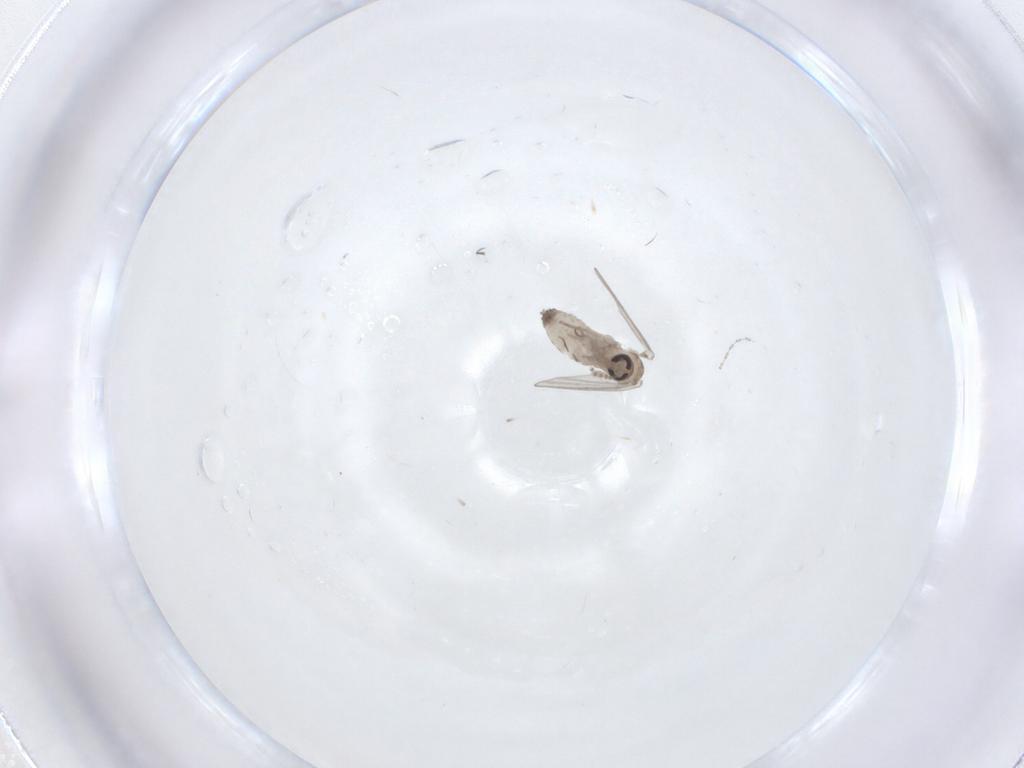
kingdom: Animalia
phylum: Arthropoda
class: Insecta
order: Diptera
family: Psychodidae
